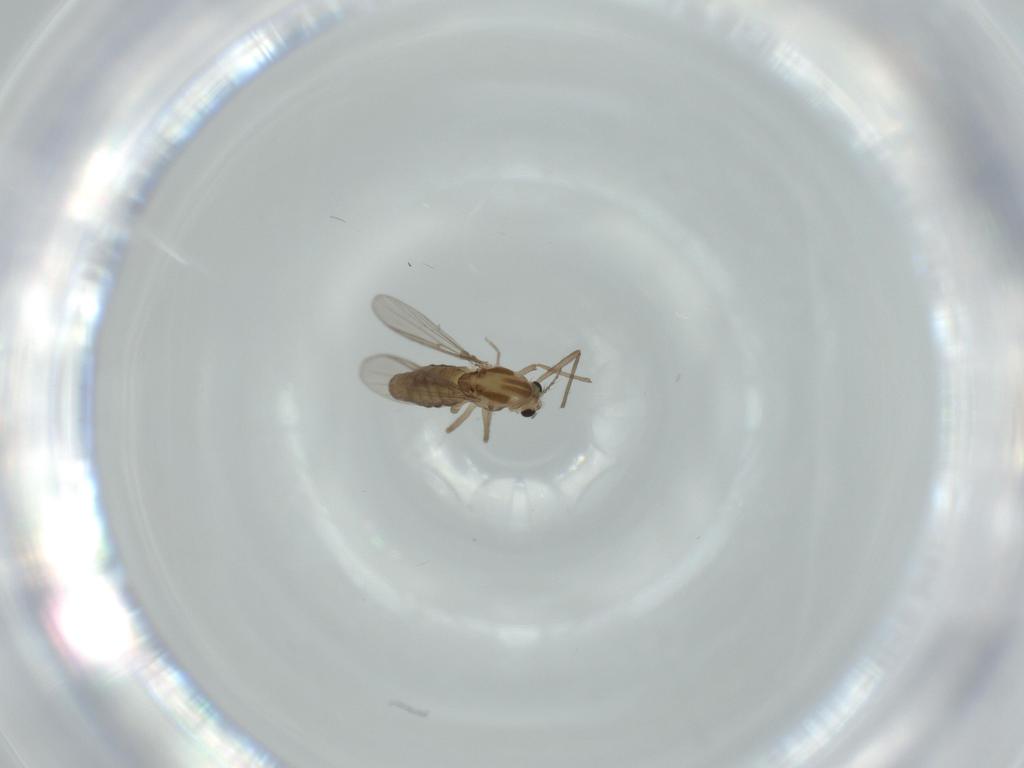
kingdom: Animalia
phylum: Arthropoda
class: Insecta
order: Diptera
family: Chironomidae
